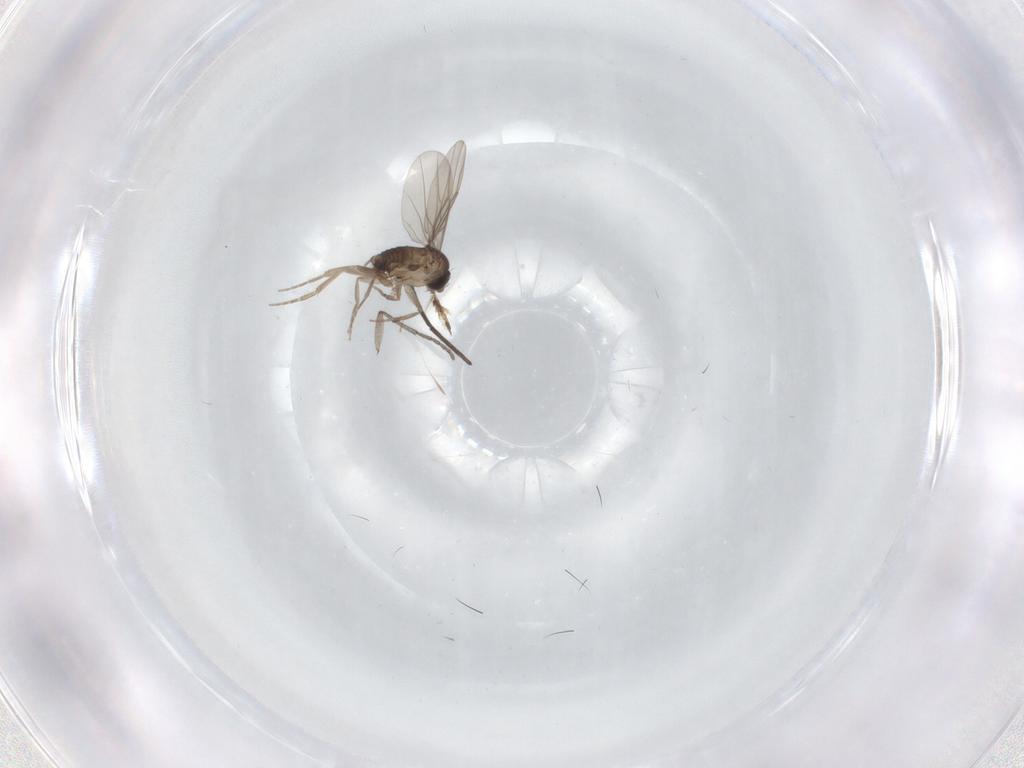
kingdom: Animalia
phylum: Arthropoda
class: Insecta
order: Diptera
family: Sciaridae
